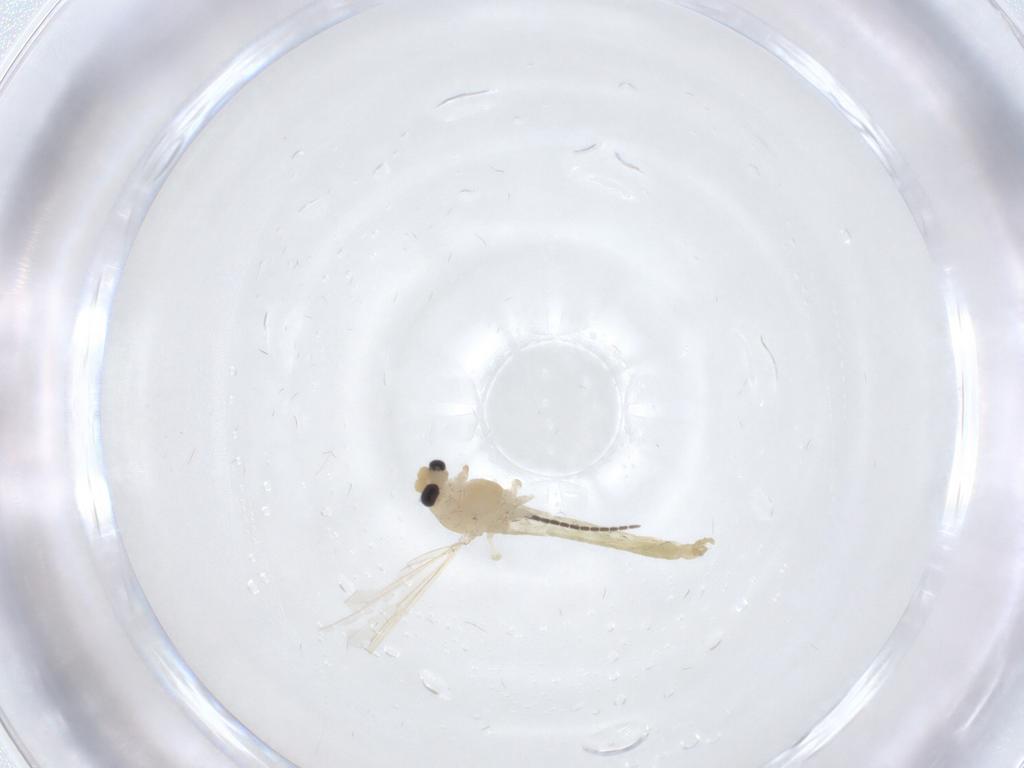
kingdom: Animalia
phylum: Arthropoda
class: Insecta
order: Diptera
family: Chironomidae
